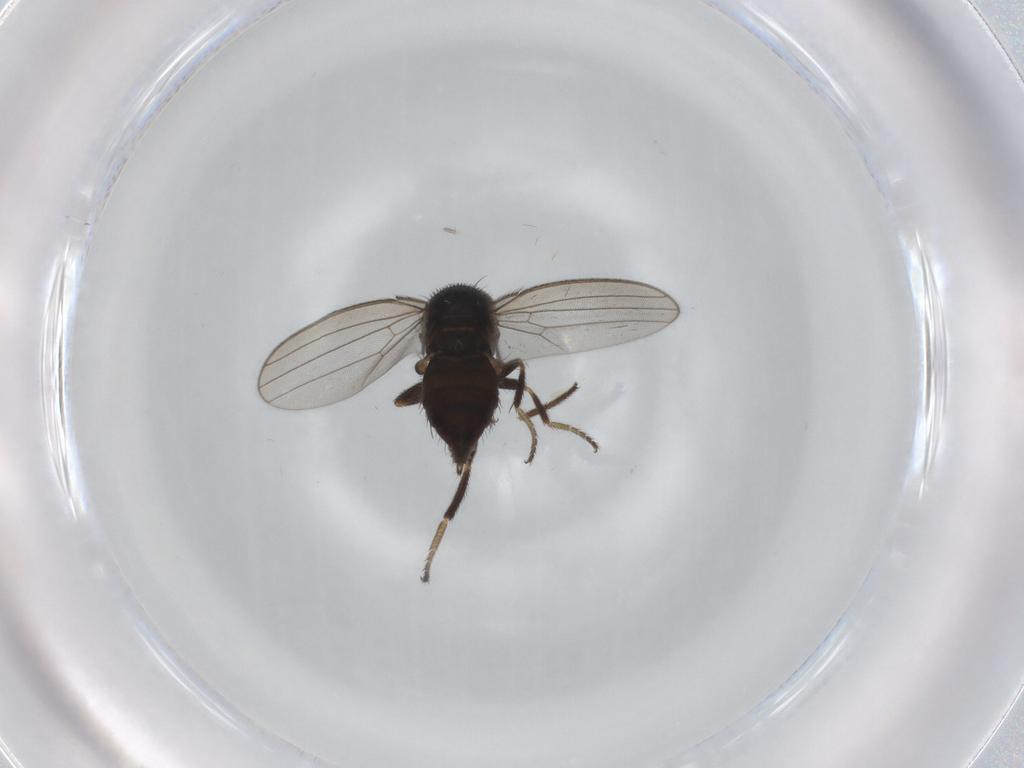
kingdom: Animalia
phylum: Arthropoda
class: Insecta
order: Diptera
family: Milichiidae
